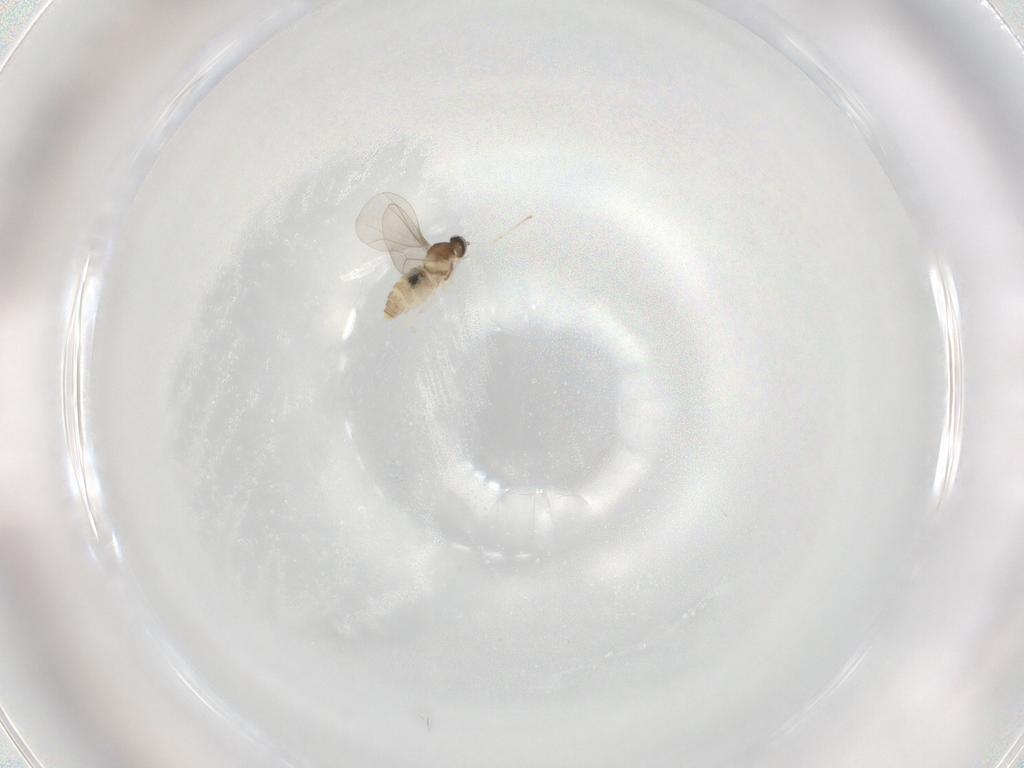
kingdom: Animalia
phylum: Arthropoda
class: Insecta
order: Diptera
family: Cecidomyiidae
